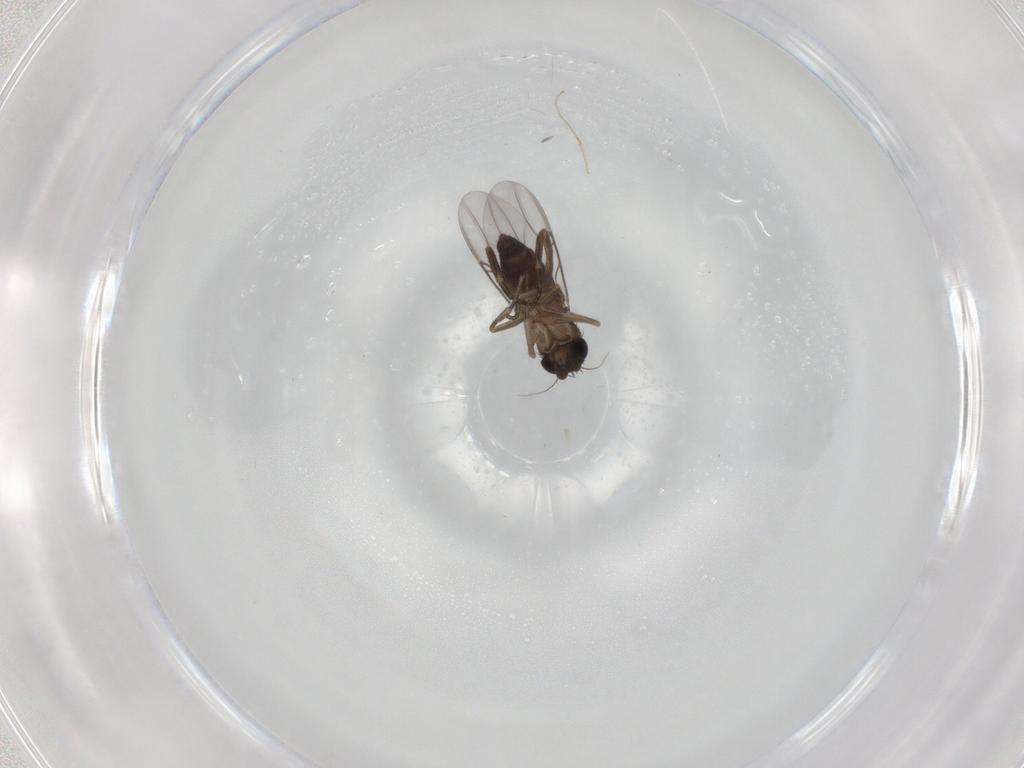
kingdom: Animalia
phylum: Arthropoda
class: Insecta
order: Diptera
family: Phoridae
